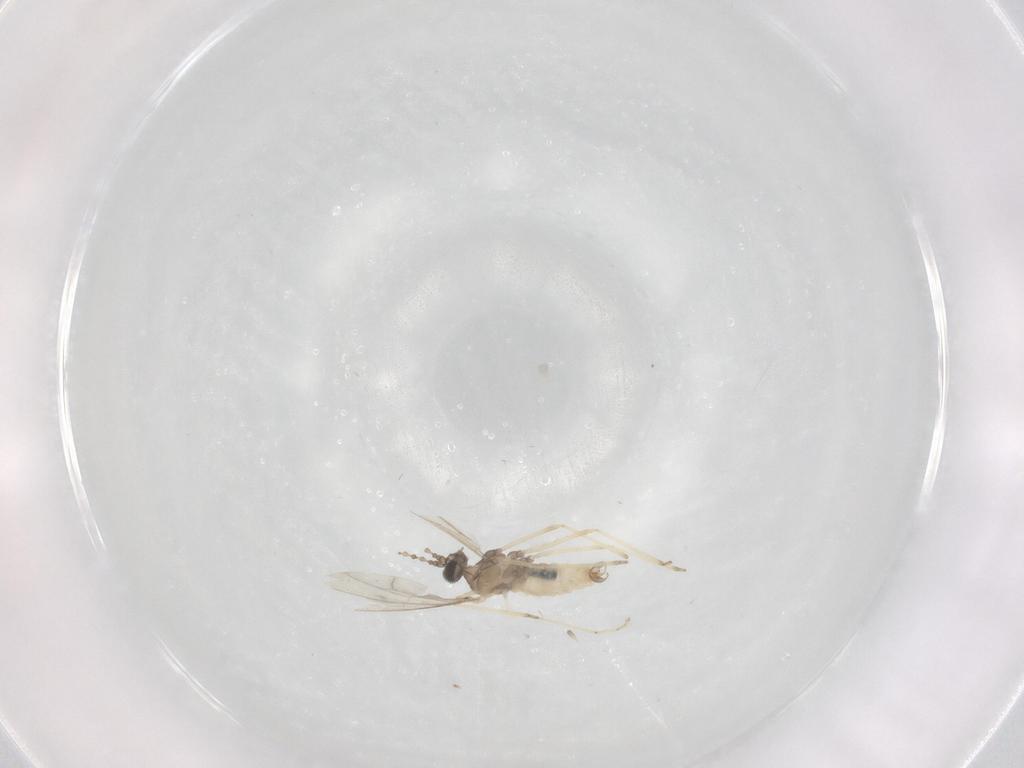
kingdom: Animalia
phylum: Arthropoda
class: Insecta
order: Diptera
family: Cecidomyiidae
